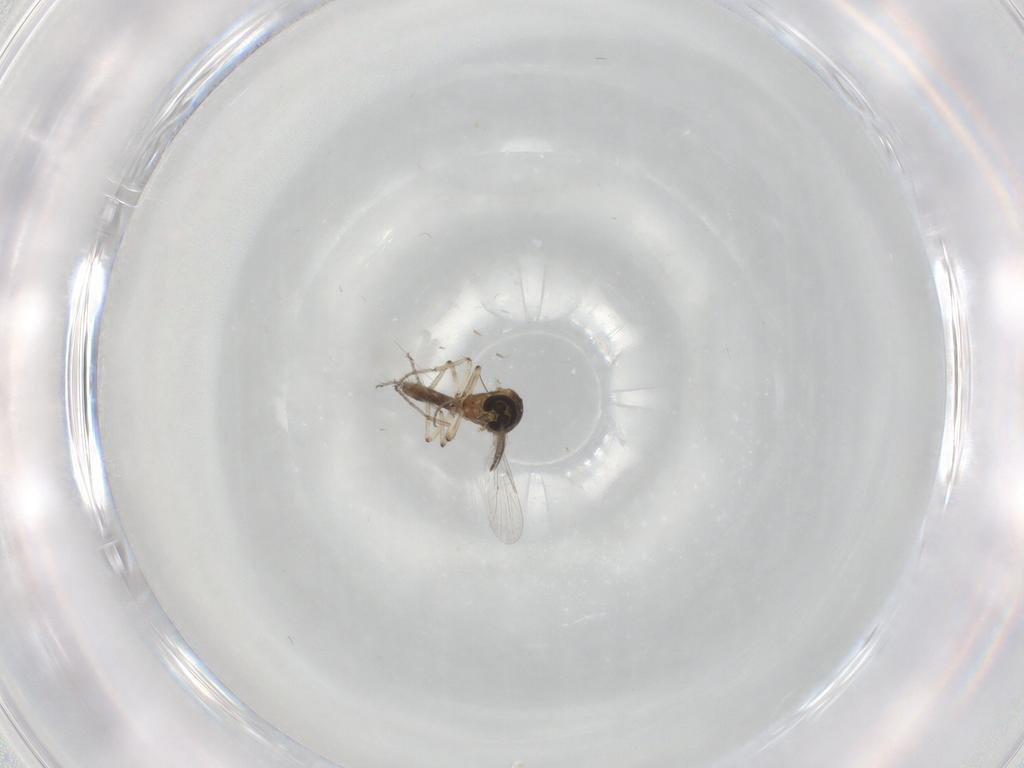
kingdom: Animalia
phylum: Arthropoda
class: Insecta
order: Diptera
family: Ceratopogonidae
